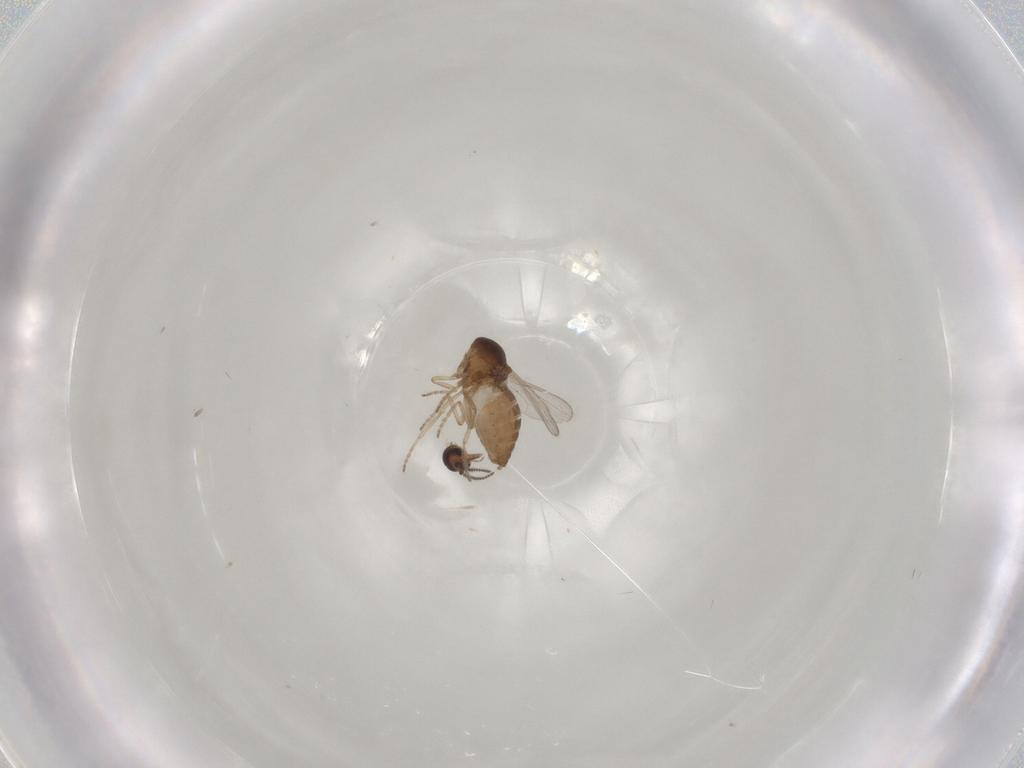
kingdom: Animalia
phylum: Arthropoda
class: Insecta
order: Diptera
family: Ceratopogonidae
